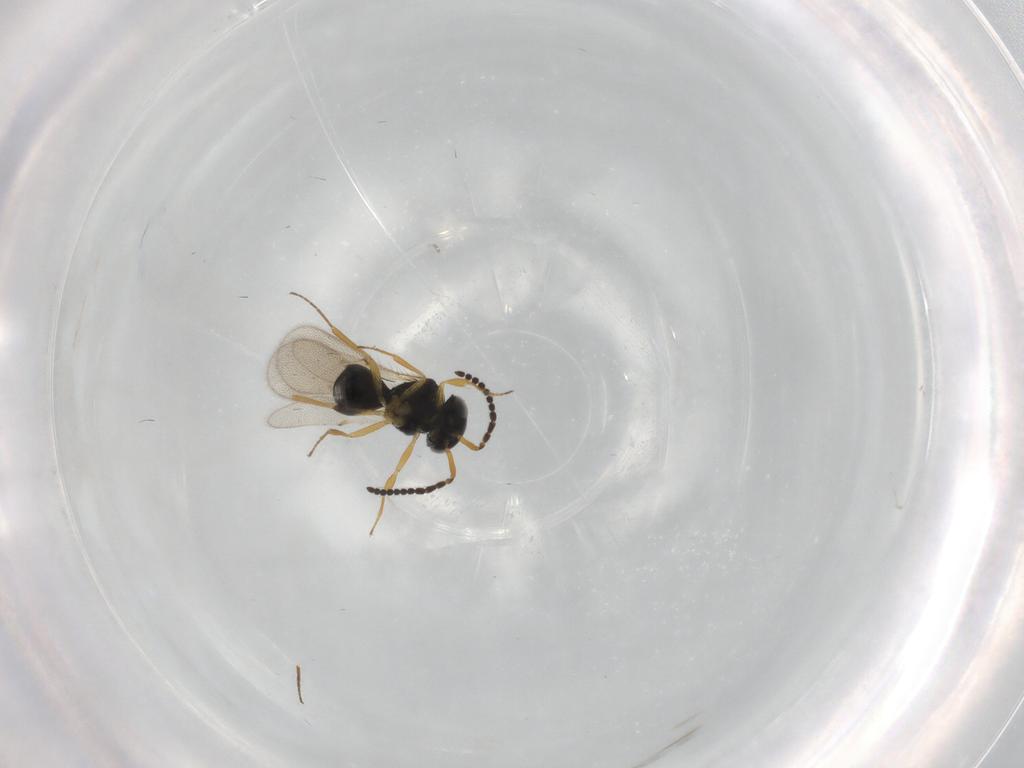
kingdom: Animalia
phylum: Arthropoda
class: Insecta
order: Hymenoptera
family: Scelionidae
